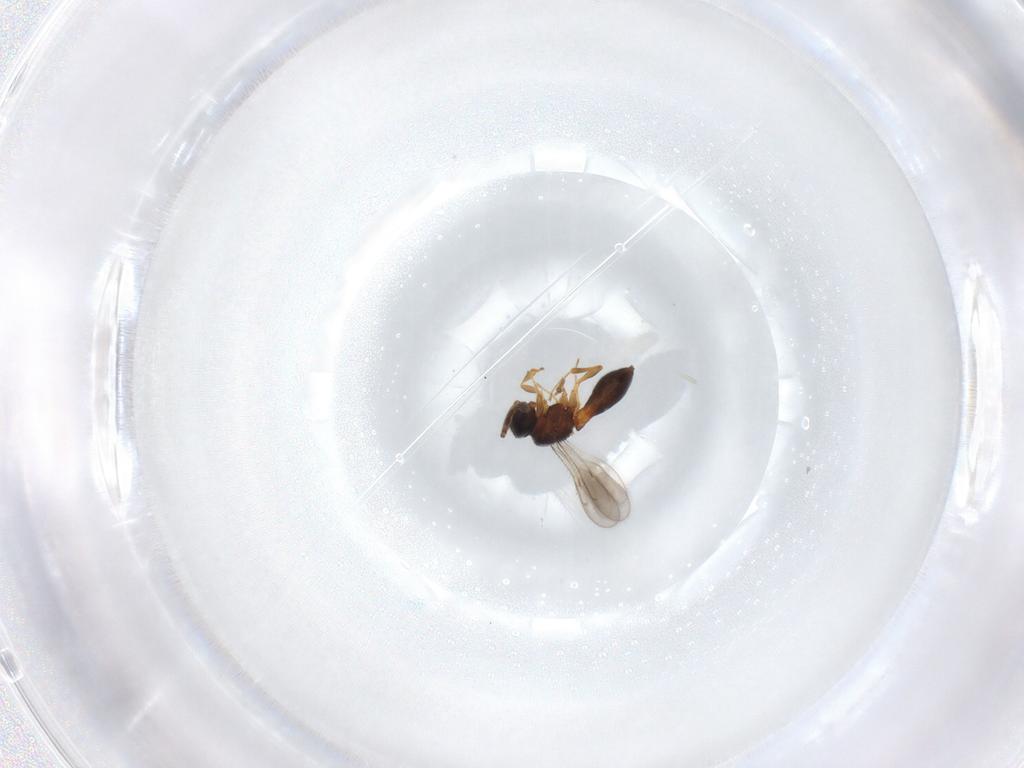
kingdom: Animalia
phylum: Arthropoda
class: Insecta
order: Hymenoptera
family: Scelionidae
